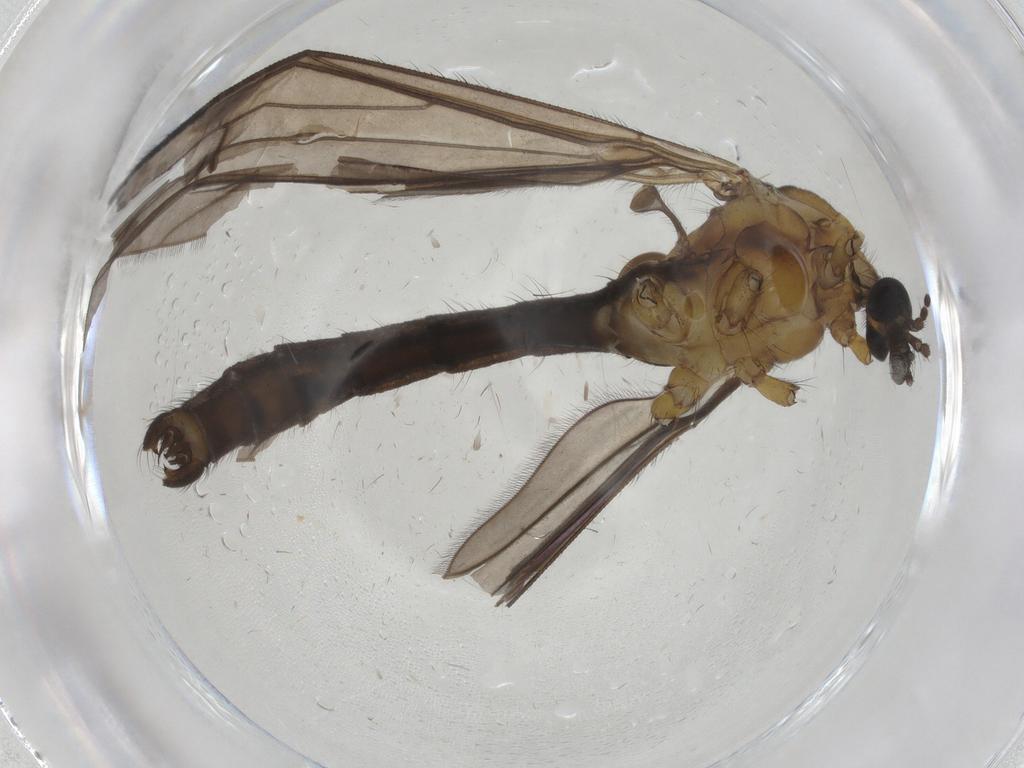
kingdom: Animalia
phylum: Arthropoda
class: Insecta
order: Diptera
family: Limoniidae
